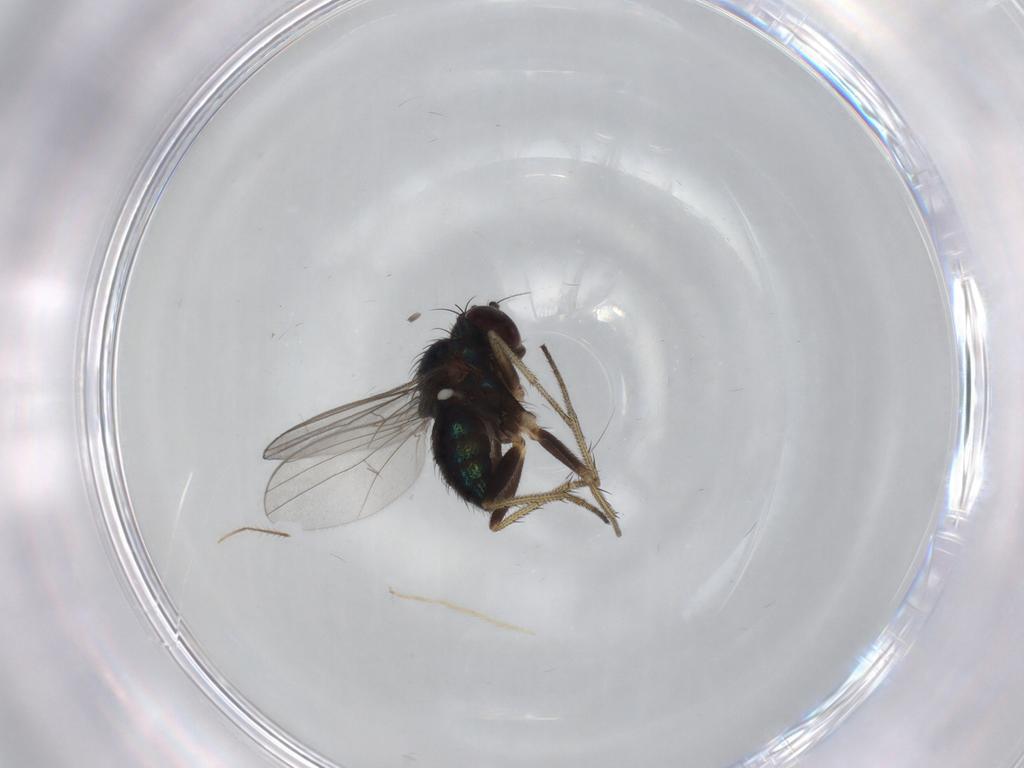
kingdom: Animalia
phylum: Arthropoda
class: Insecta
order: Diptera
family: Dolichopodidae
